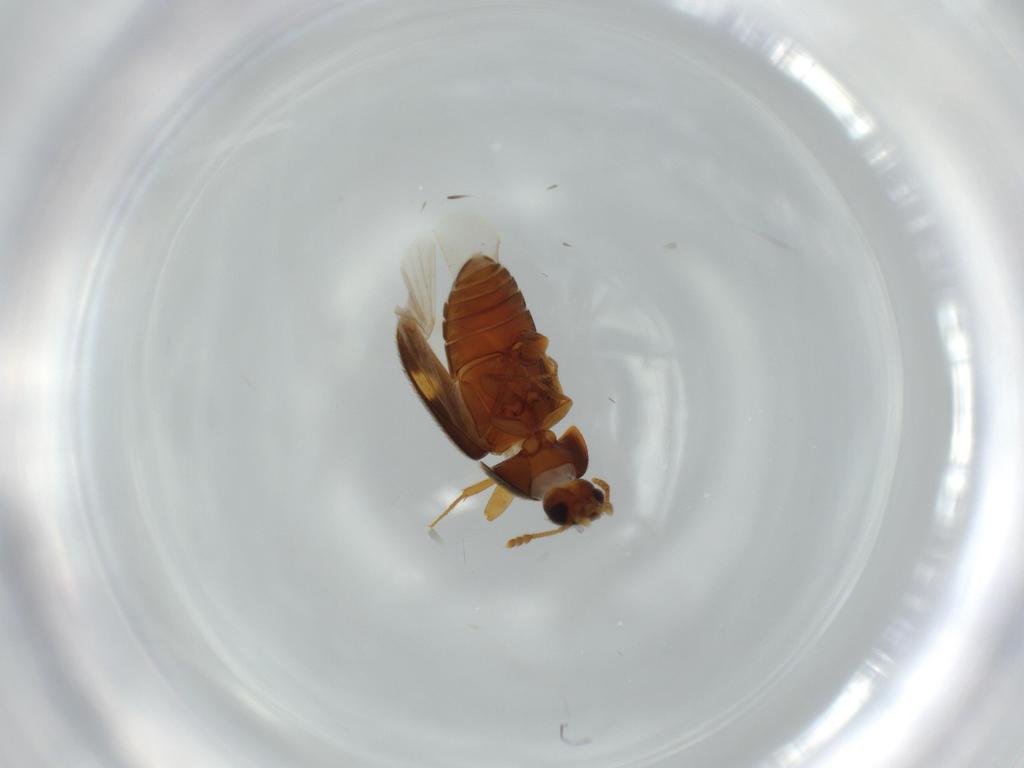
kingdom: Animalia
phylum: Arthropoda
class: Insecta
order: Coleoptera
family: Mycetophagidae
